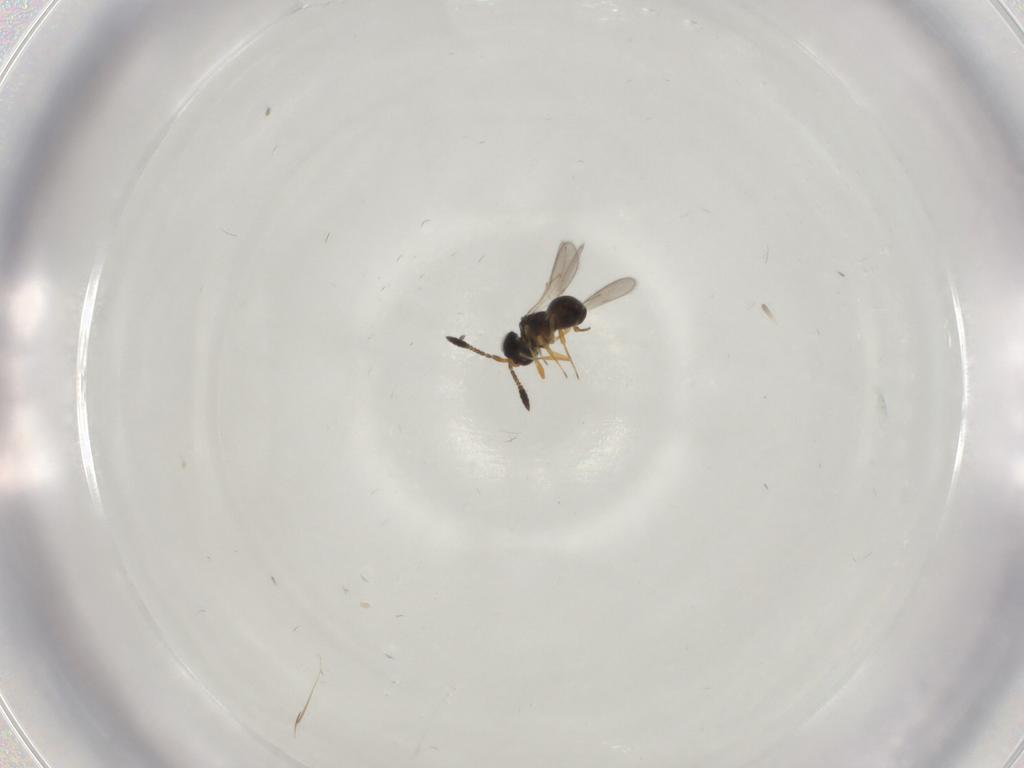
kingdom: Animalia
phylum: Arthropoda
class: Insecta
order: Hymenoptera
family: Scelionidae
